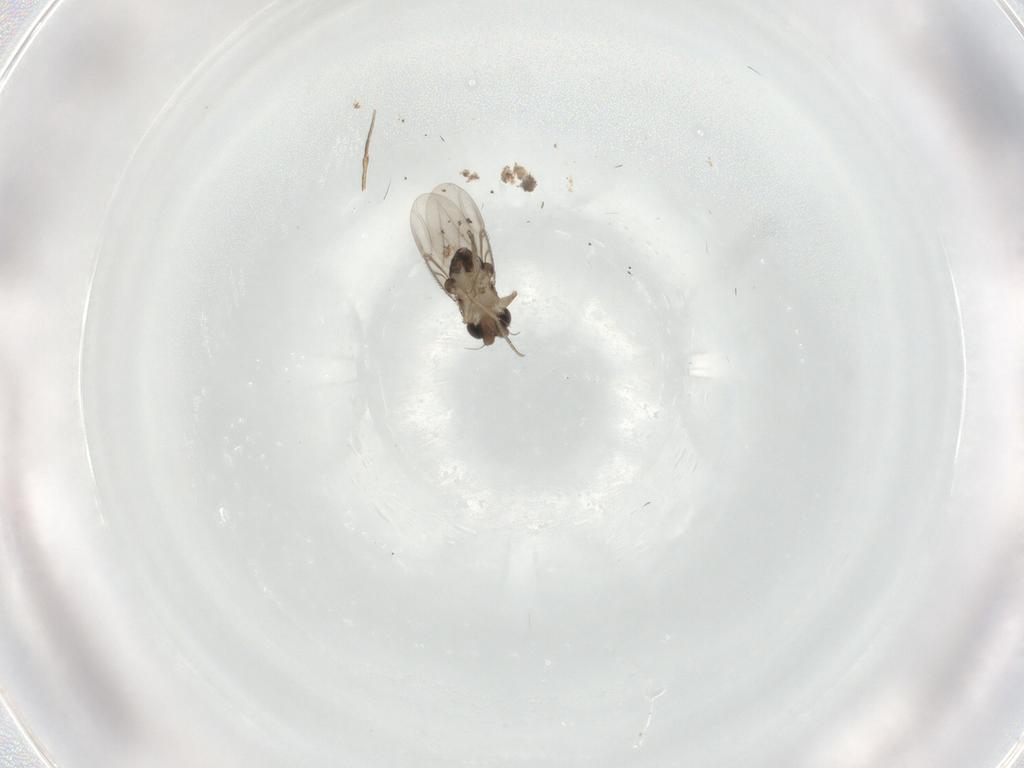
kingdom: Animalia
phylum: Arthropoda
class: Insecta
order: Diptera
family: Phoridae
